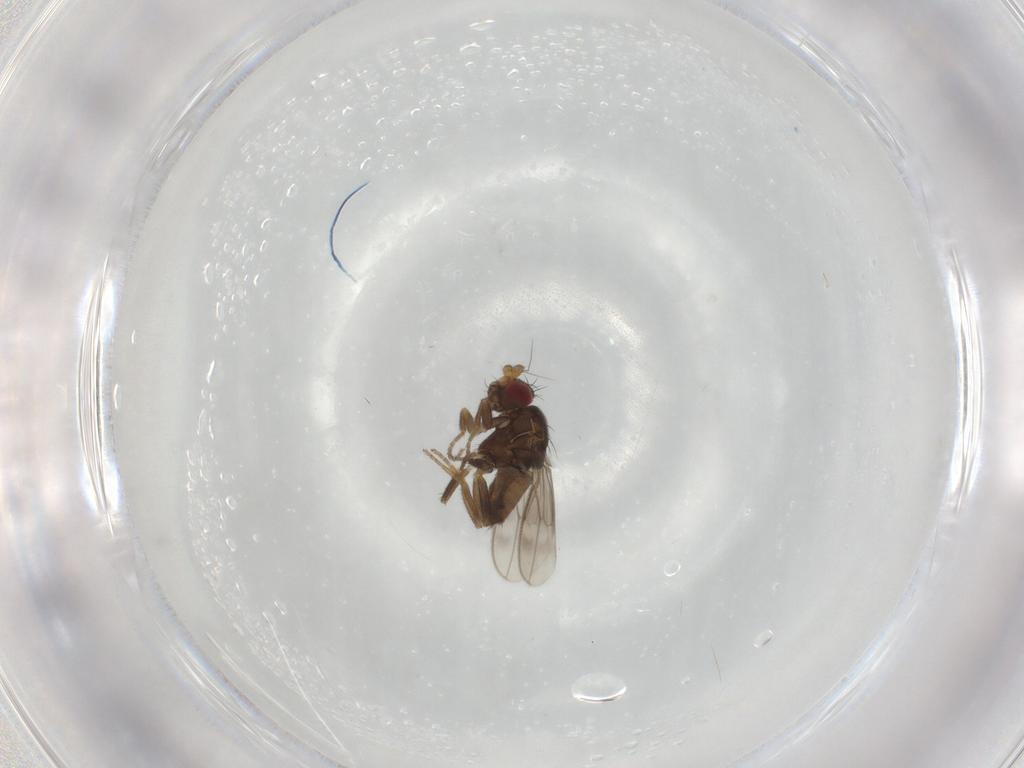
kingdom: Animalia
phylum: Arthropoda
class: Insecta
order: Diptera
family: Sphaeroceridae
